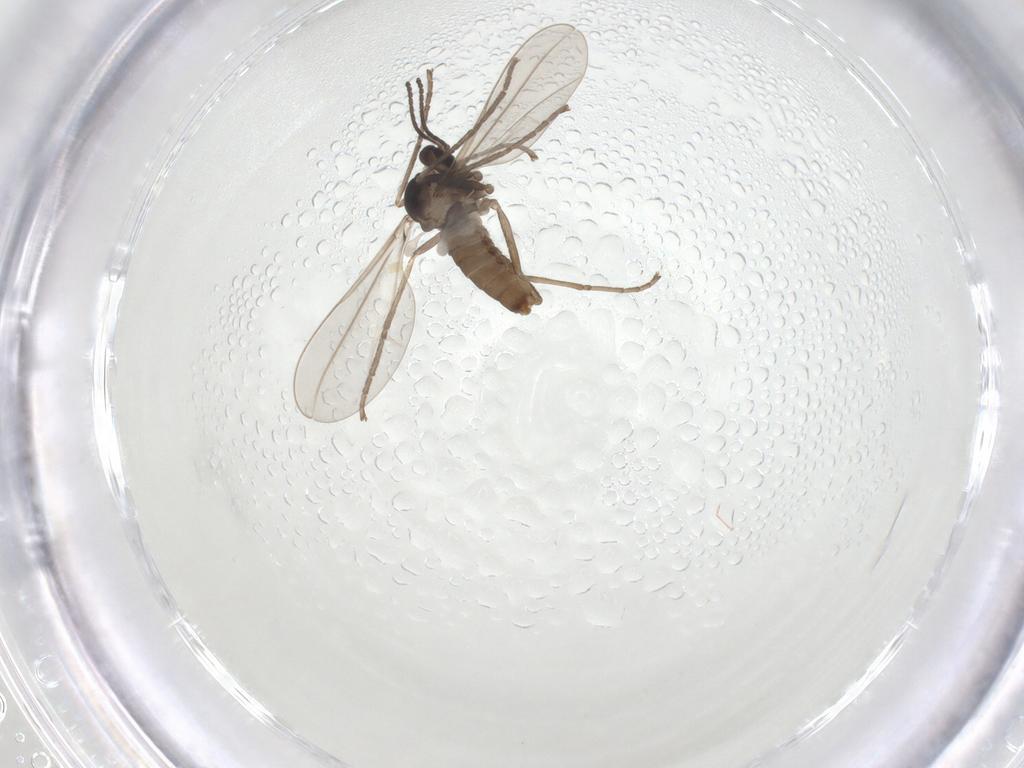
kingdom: Animalia
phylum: Arthropoda
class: Insecta
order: Diptera
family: Cecidomyiidae
